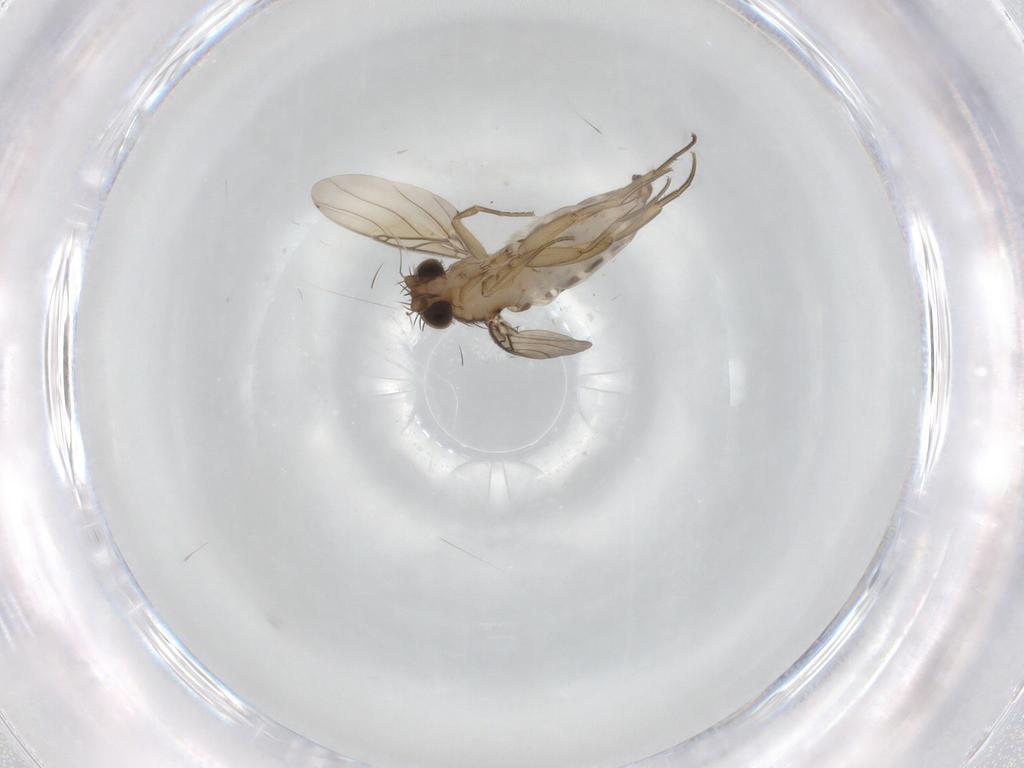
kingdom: Animalia
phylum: Arthropoda
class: Insecta
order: Diptera
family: Phoridae
